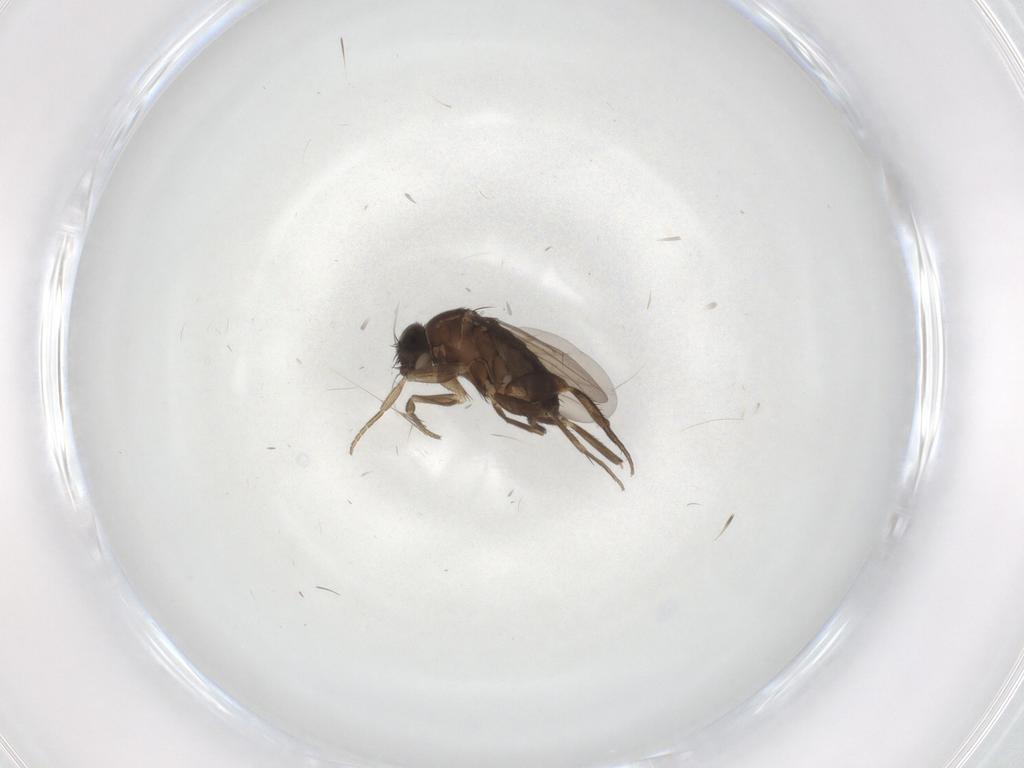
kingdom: Animalia
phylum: Arthropoda
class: Insecta
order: Diptera
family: Phoridae
